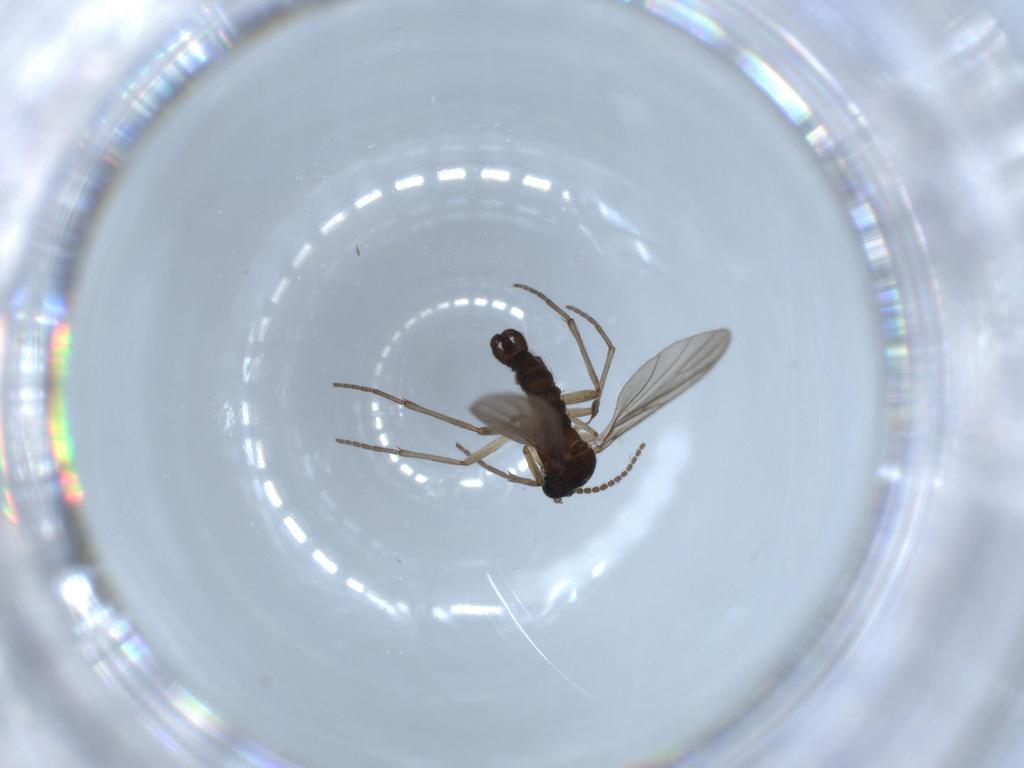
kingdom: Animalia
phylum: Arthropoda
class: Insecta
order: Diptera
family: Sciaridae
